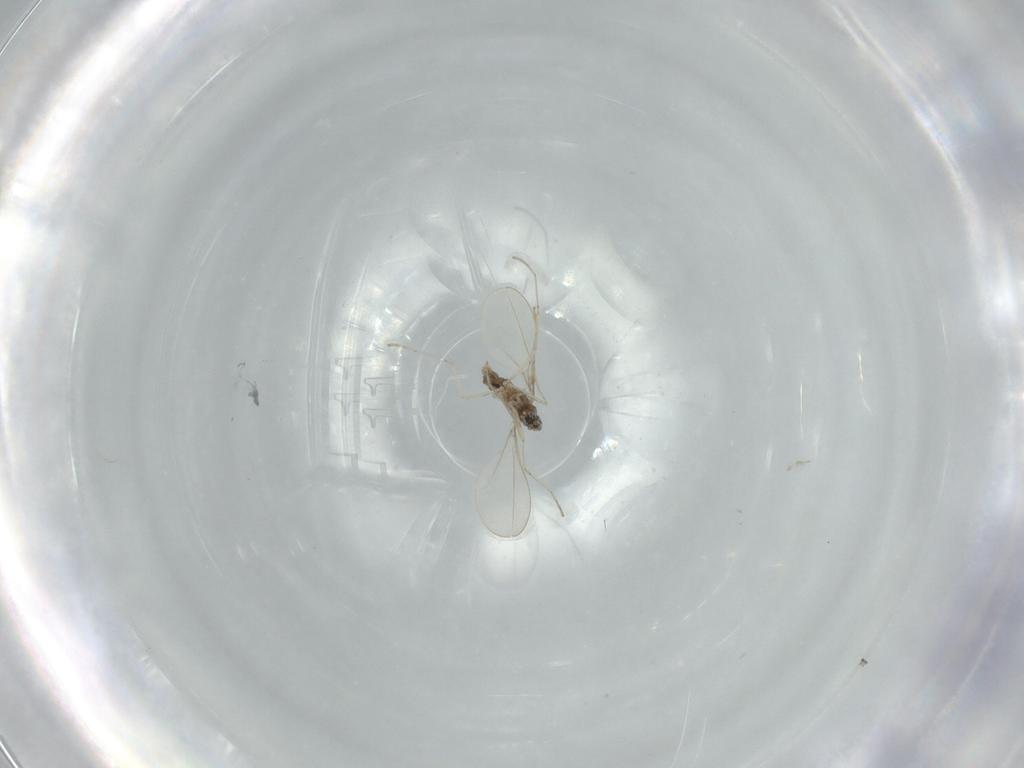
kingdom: Animalia
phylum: Arthropoda
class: Insecta
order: Diptera
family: Cecidomyiidae
